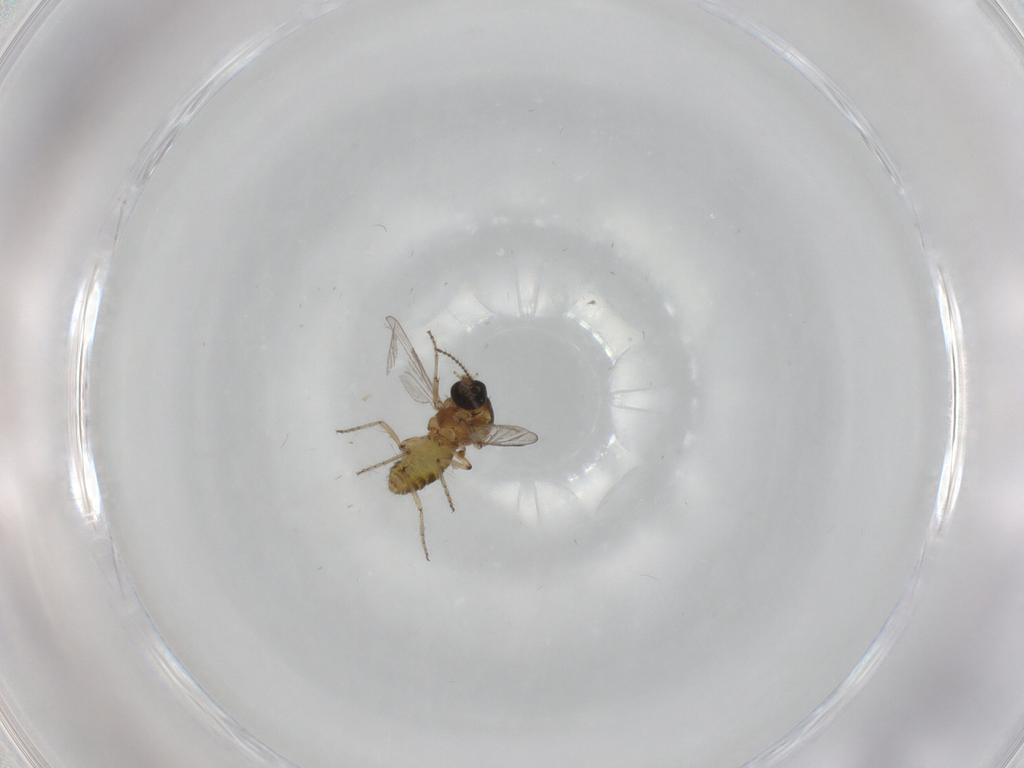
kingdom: Animalia
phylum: Arthropoda
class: Insecta
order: Diptera
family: Ceratopogonidae
